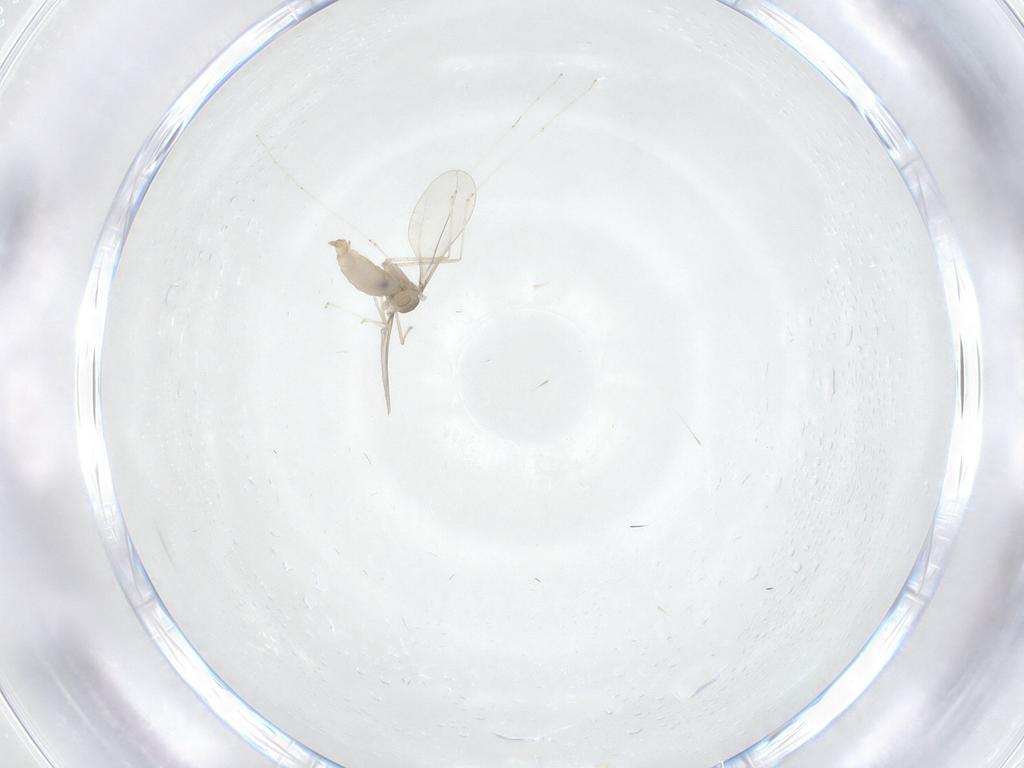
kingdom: Animalia
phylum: Arthropoda
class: Insecta
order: Diptera
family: Cecidomyiidae
